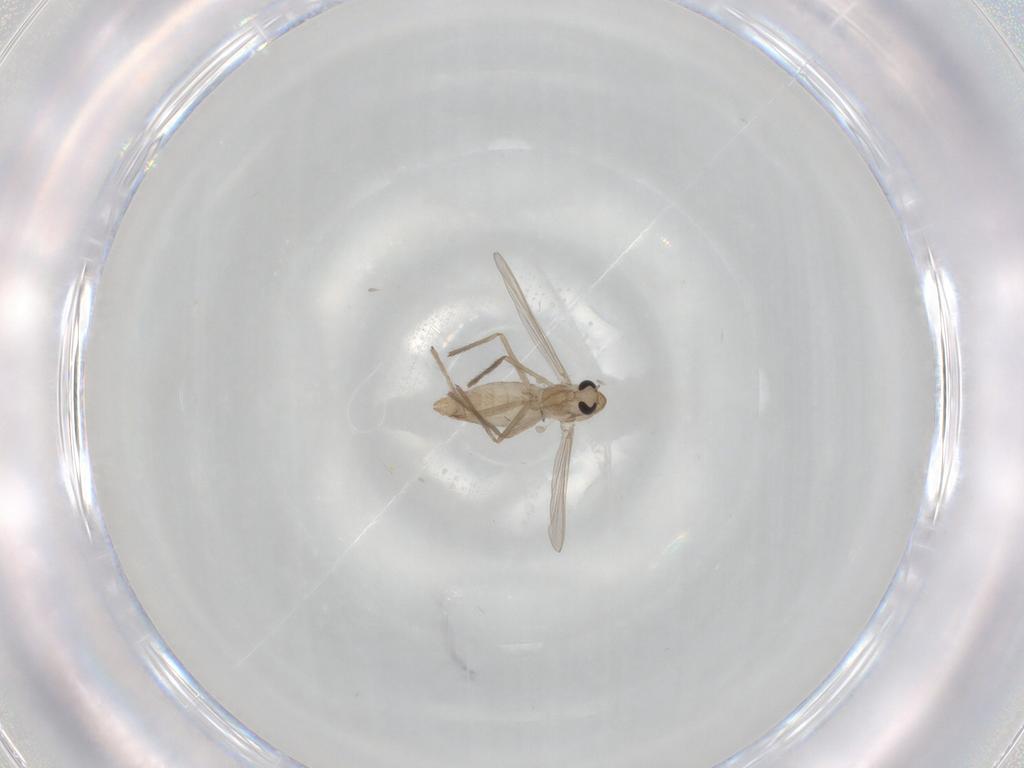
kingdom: Animalia
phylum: Arthropoda
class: Insecta
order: Diptera
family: Chironomidae
